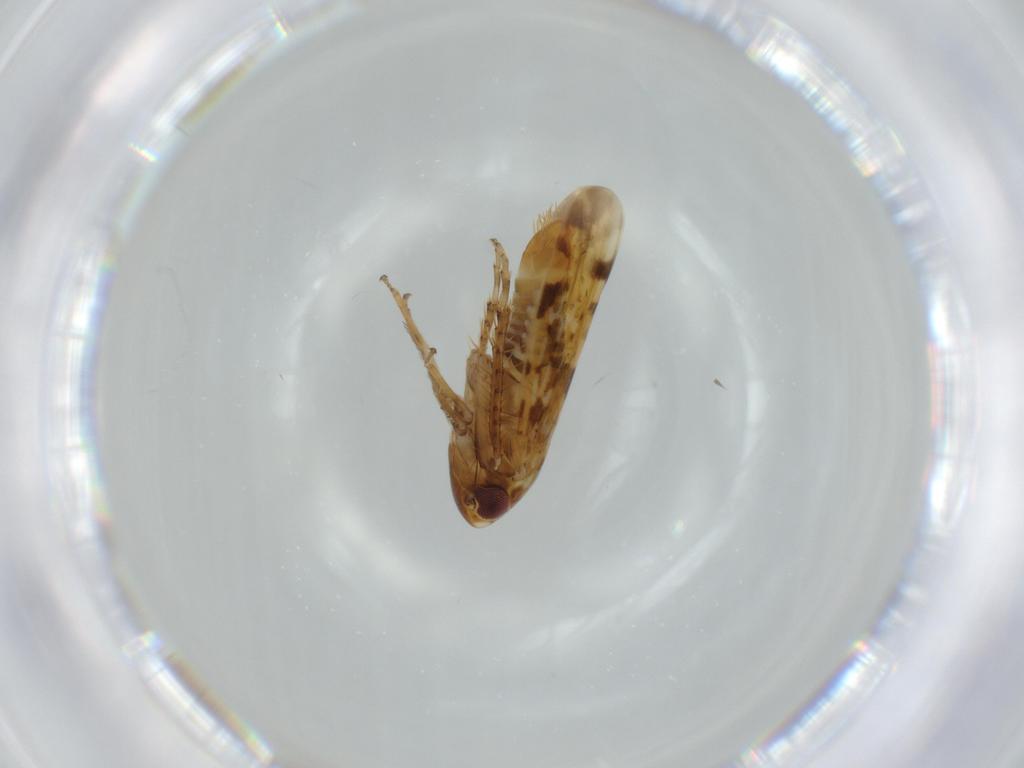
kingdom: Animalia
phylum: Arthropoda
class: Insecta
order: Hemiptera
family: Cicadellidae
